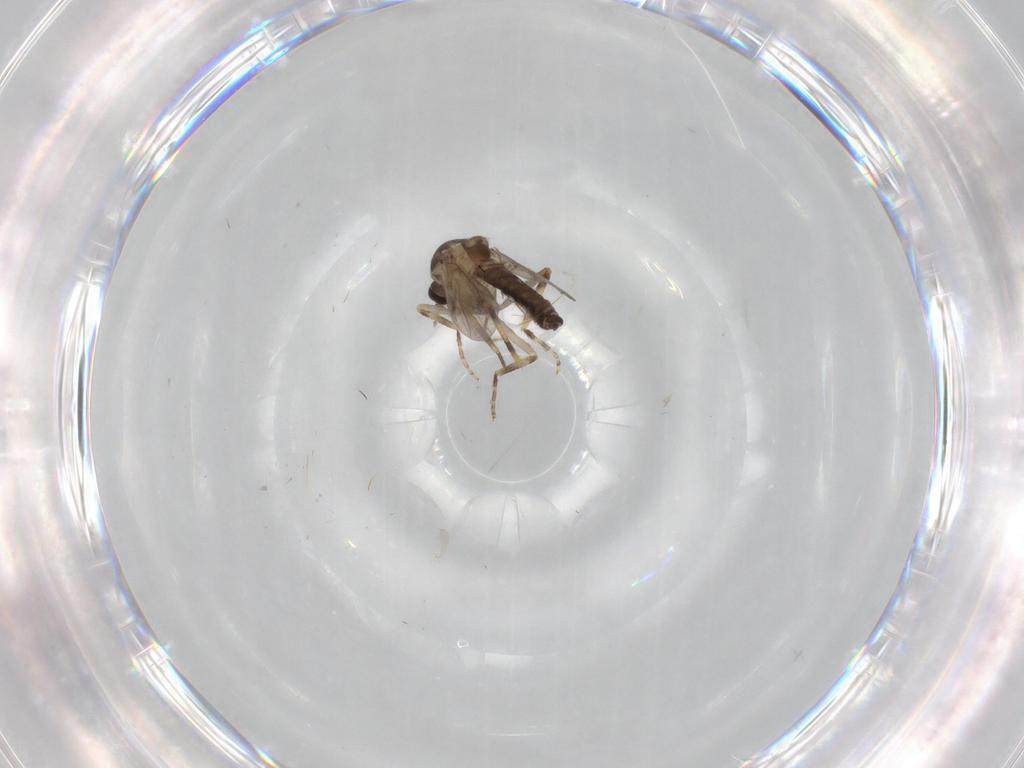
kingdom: Animalia
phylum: Arthropoda
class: Insecta
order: Diptera
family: Ceratopogonidae
